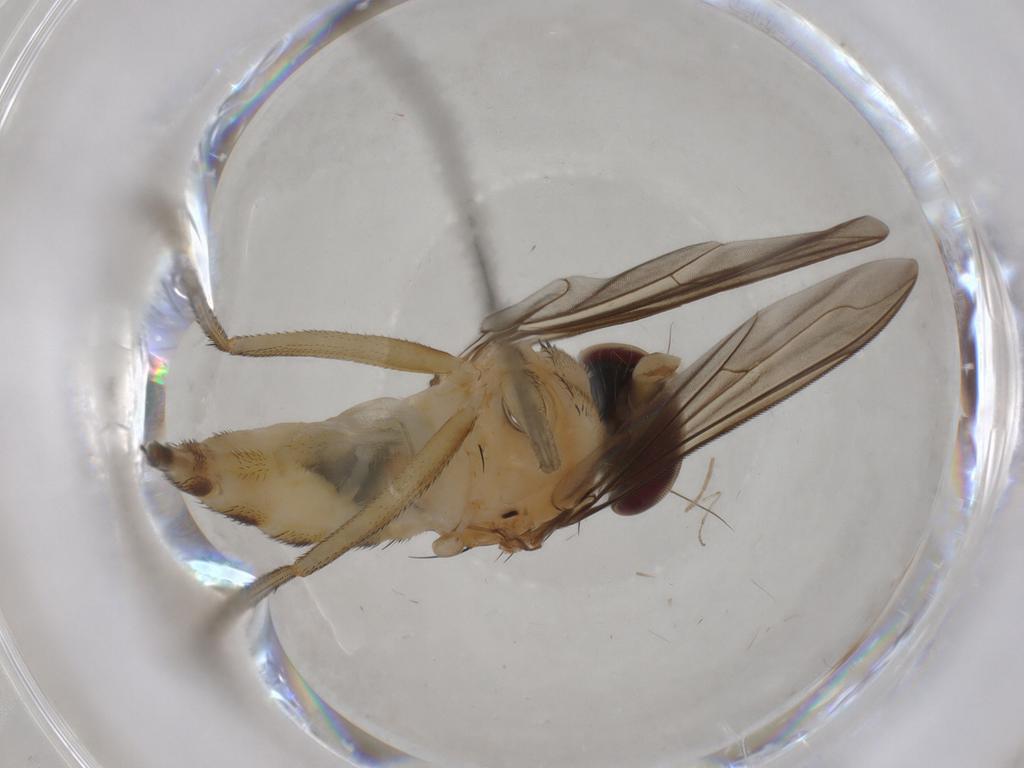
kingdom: Animalia
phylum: Arthropoda
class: Insecta
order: Diptera
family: Dolichopodidae
